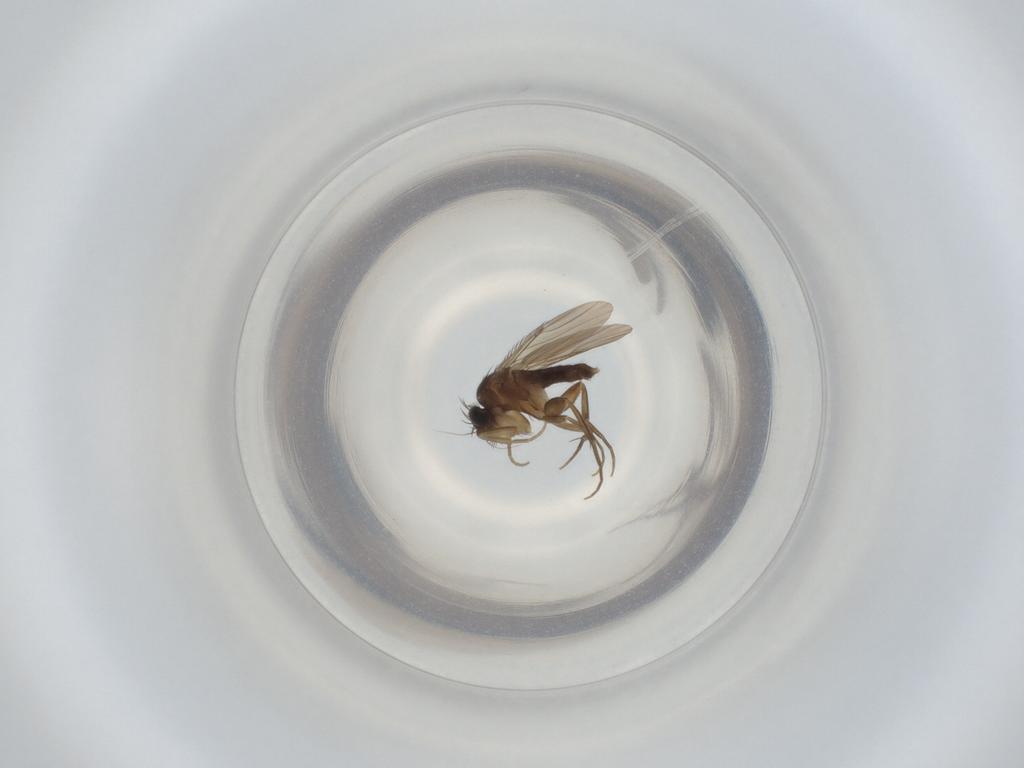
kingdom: Animalia
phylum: Arthropoda
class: Insecta
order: Diptera
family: Phoridae
